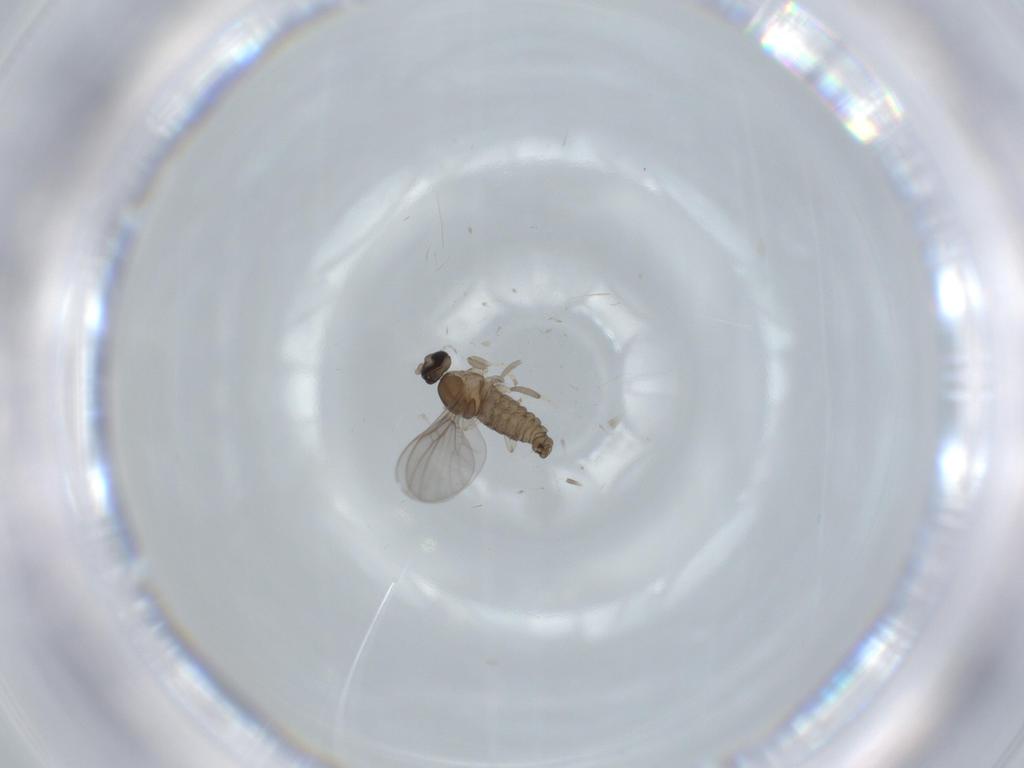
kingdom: Animalia
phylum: Arthropoda
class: Insecta
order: Diptera
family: Cecidomyiidae
